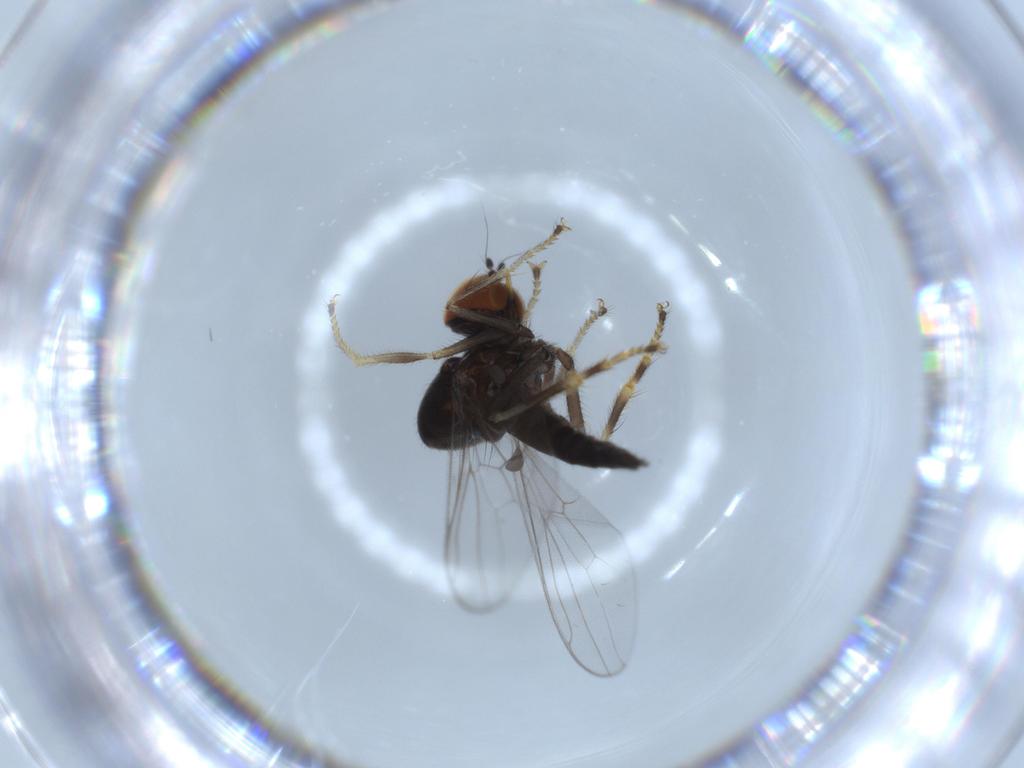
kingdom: Animalia
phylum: Arthropoda
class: Insecta
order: Diptera
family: Hybotidae
